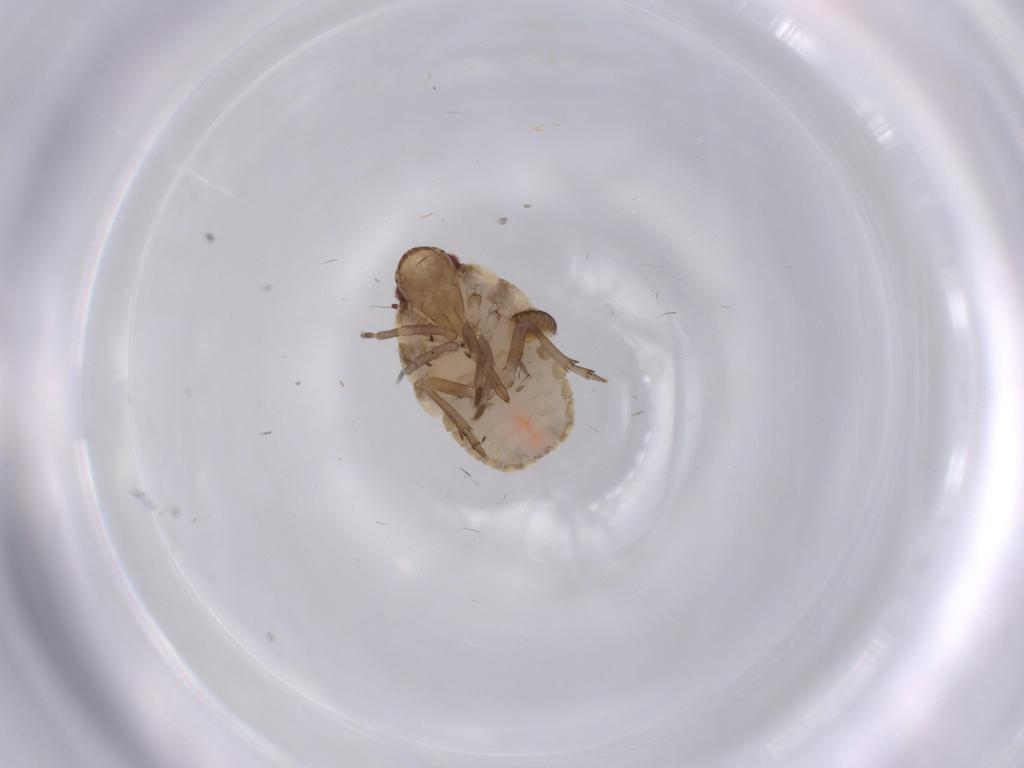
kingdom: Animalia
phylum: Arthropoda
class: Insecta
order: Hemiptera
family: Flatidae
